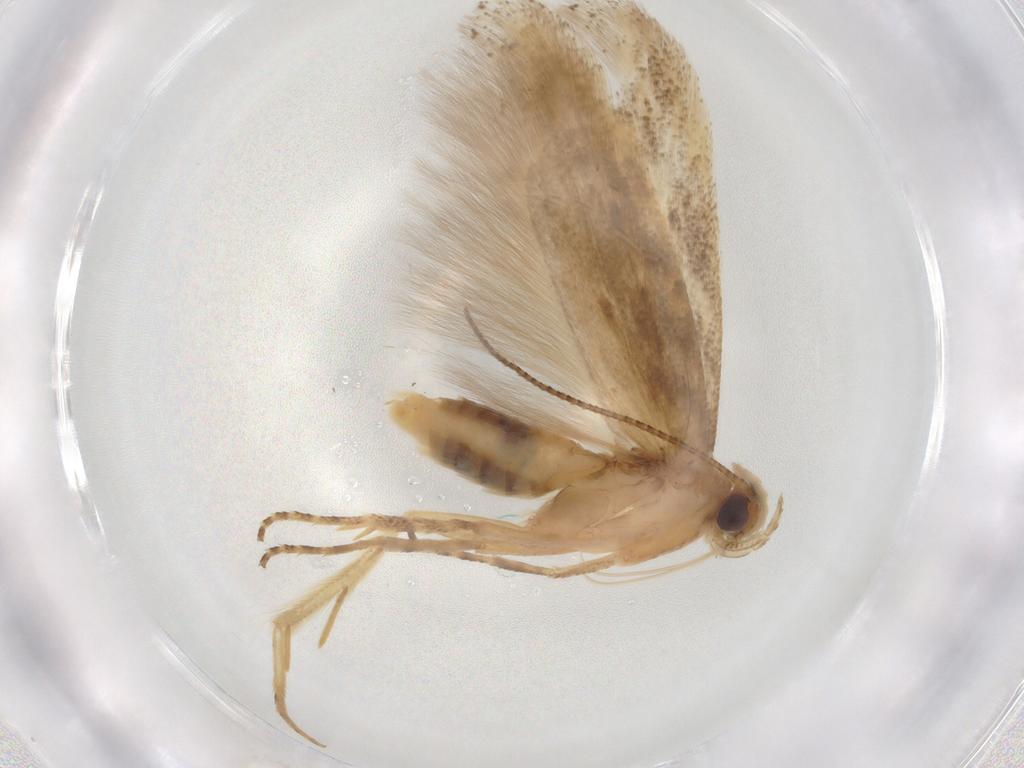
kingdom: Animalia
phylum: Arthropoda
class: Insecta
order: Lepidoptera
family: Gelechiidae
